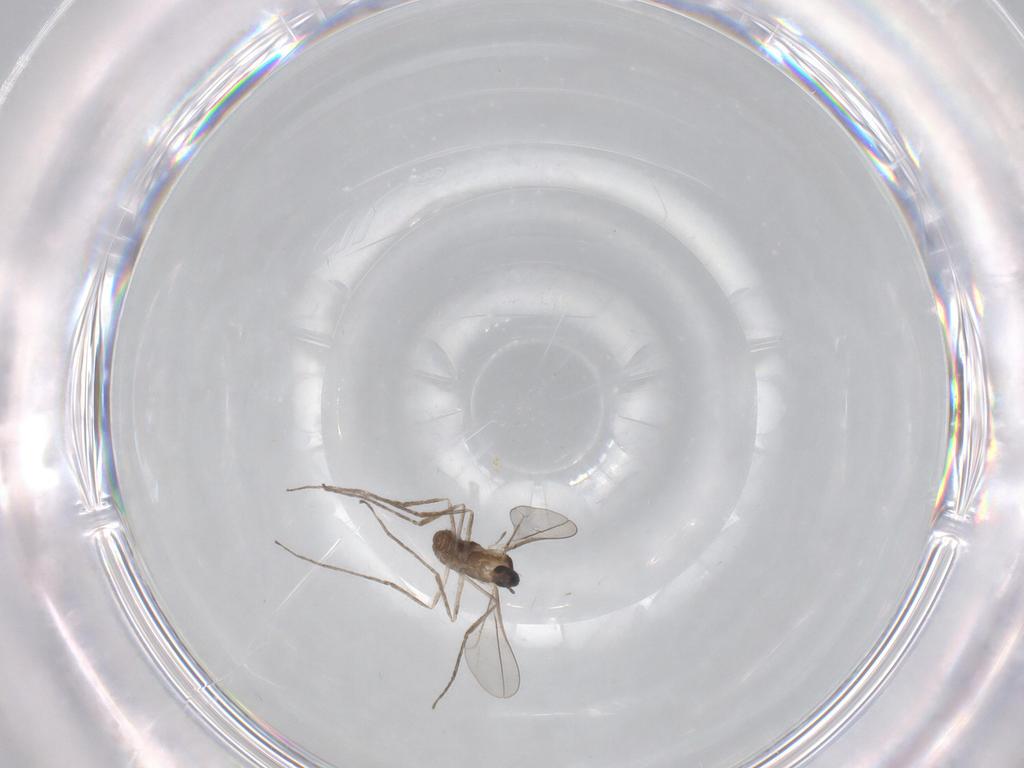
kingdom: Animalia
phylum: Arthropoda
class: Insecta
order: Diptera
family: Cecidomyiidae
